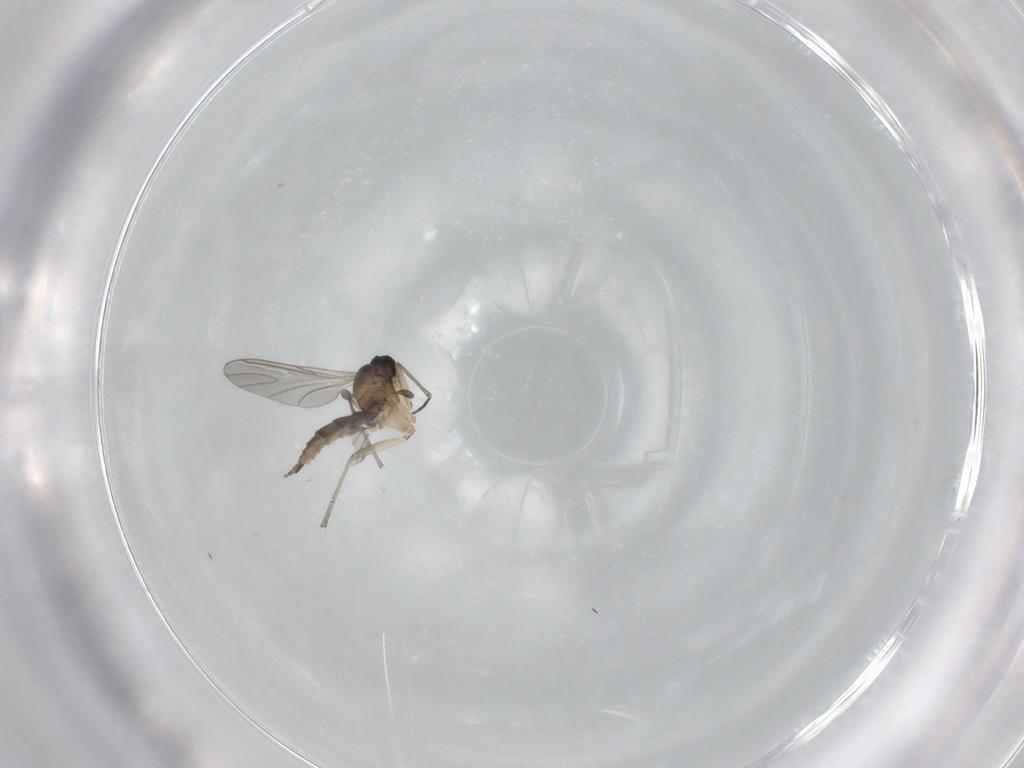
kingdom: Animalia
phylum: Arthropoda
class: Insecta
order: Diptera
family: Sciaridae
